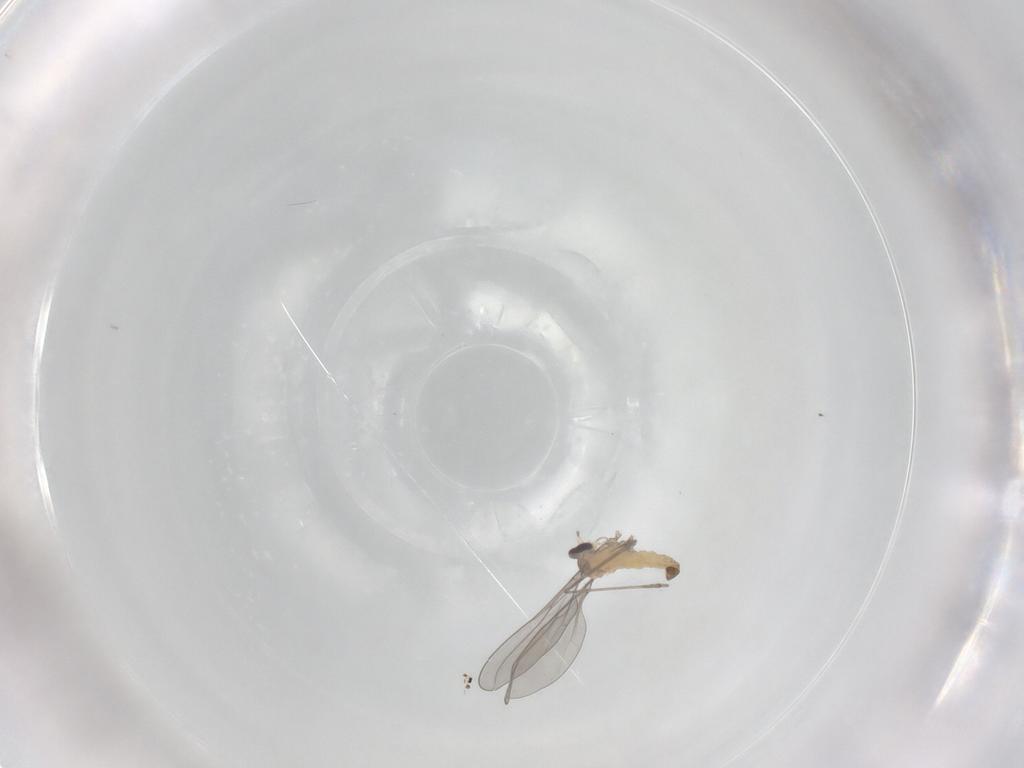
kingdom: Animalia
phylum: Arthropoda
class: Insecta
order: Diptera
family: Cecidomyiidae
